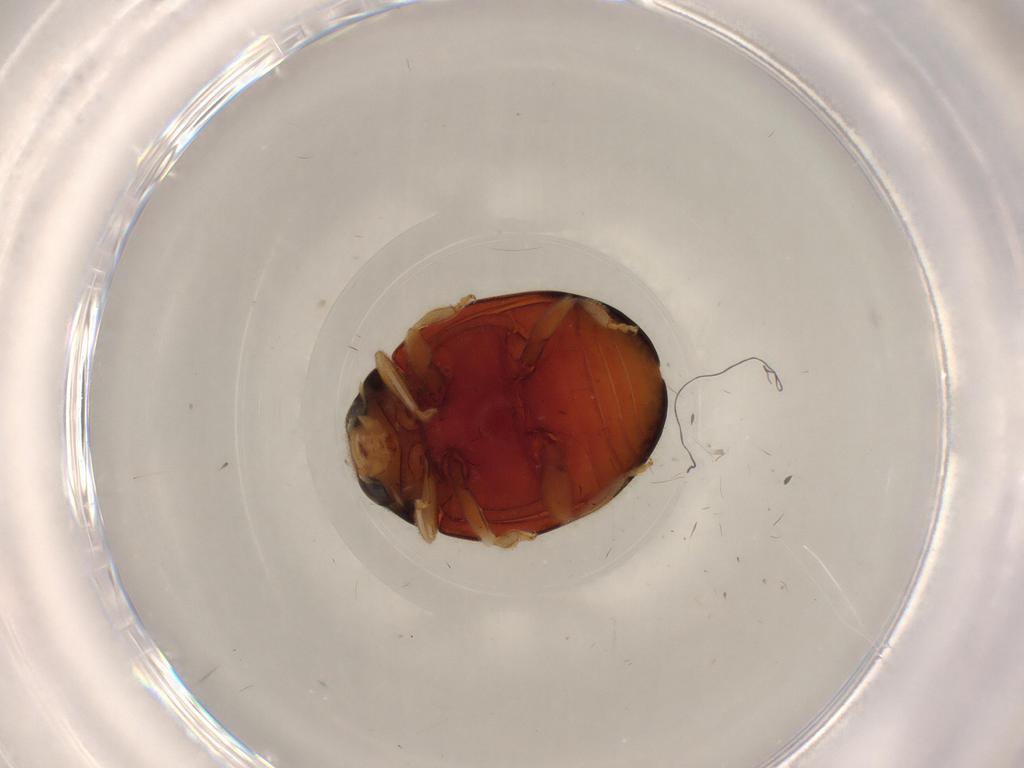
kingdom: Animalia
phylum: Arthropoda
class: Insecta
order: Coleoptera
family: Coccinellidae
